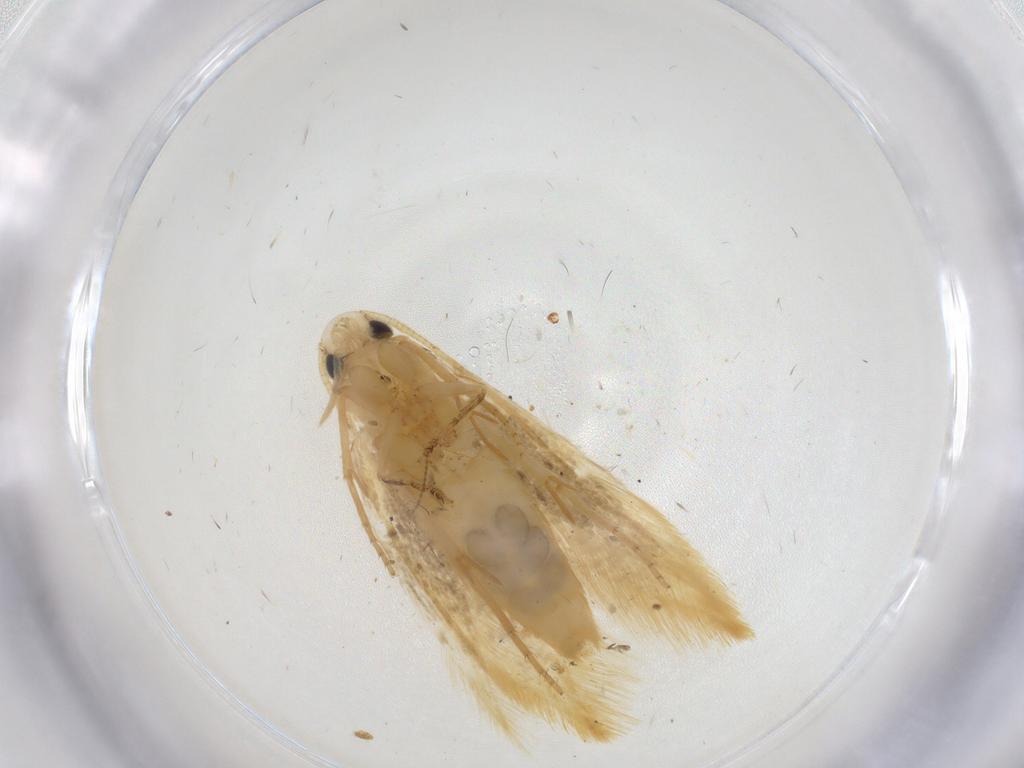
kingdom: Animalia
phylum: Arthropoda
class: Insecta
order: Lepidoptera
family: Tineidae
